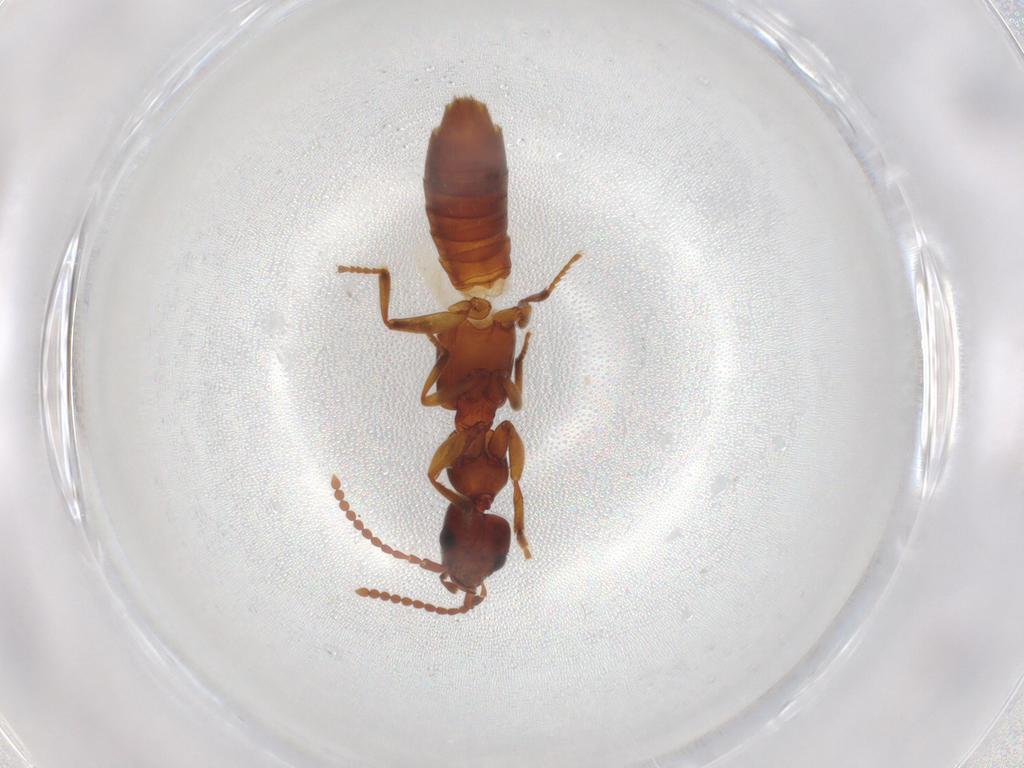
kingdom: Animalia
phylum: Arthropoda
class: Insecta
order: Coleoptera
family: Staphylinidae
